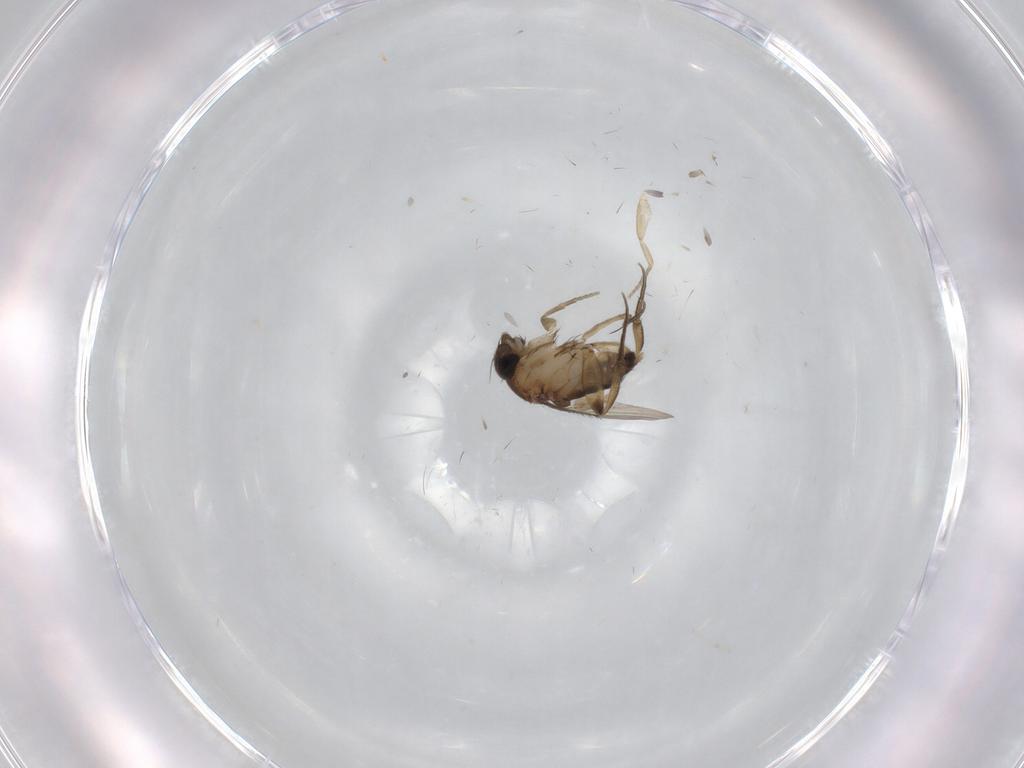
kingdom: Animalia
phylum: Arthropoda
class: Insecta
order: Diptera
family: Phoridae
